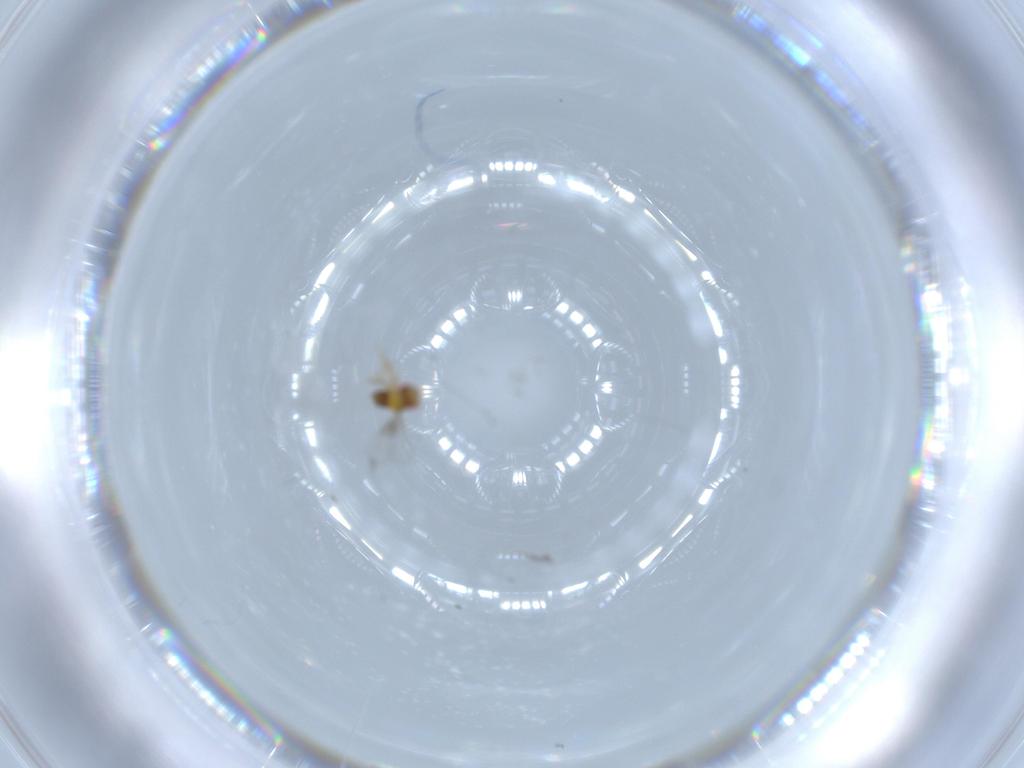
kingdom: Animalia
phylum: Arthropoda
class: Insecta
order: Hymenoptera
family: Trichogrammatidae
